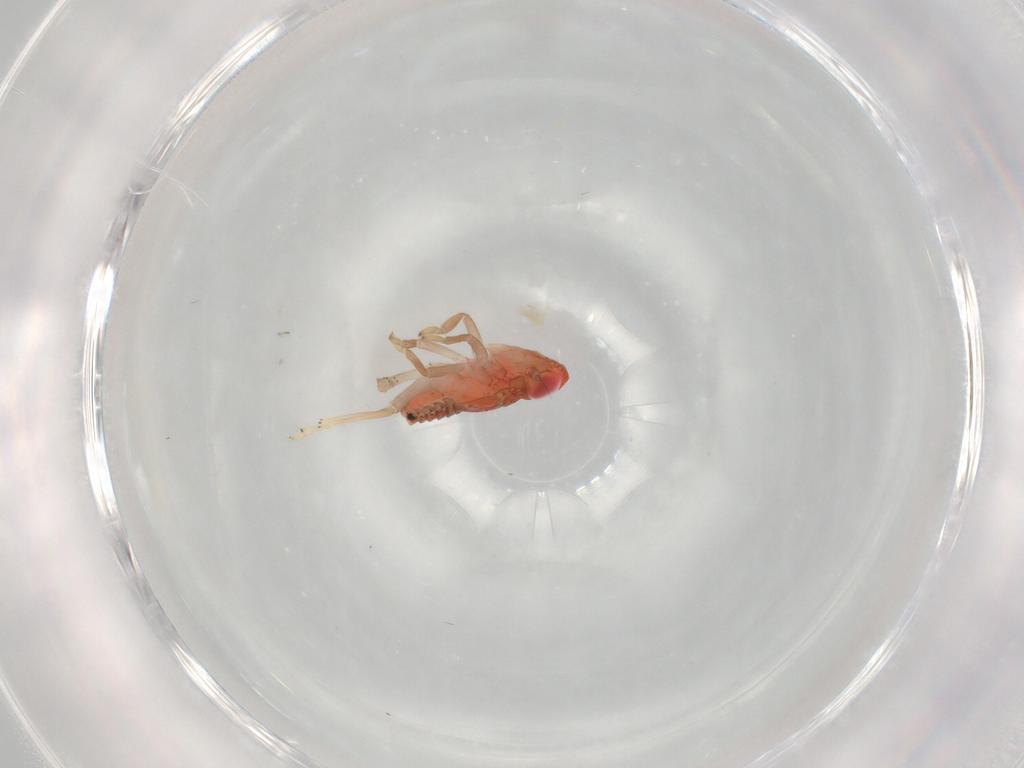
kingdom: Animalia
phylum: Arthropoda
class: Insecta
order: Hemiptera
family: Issidae
